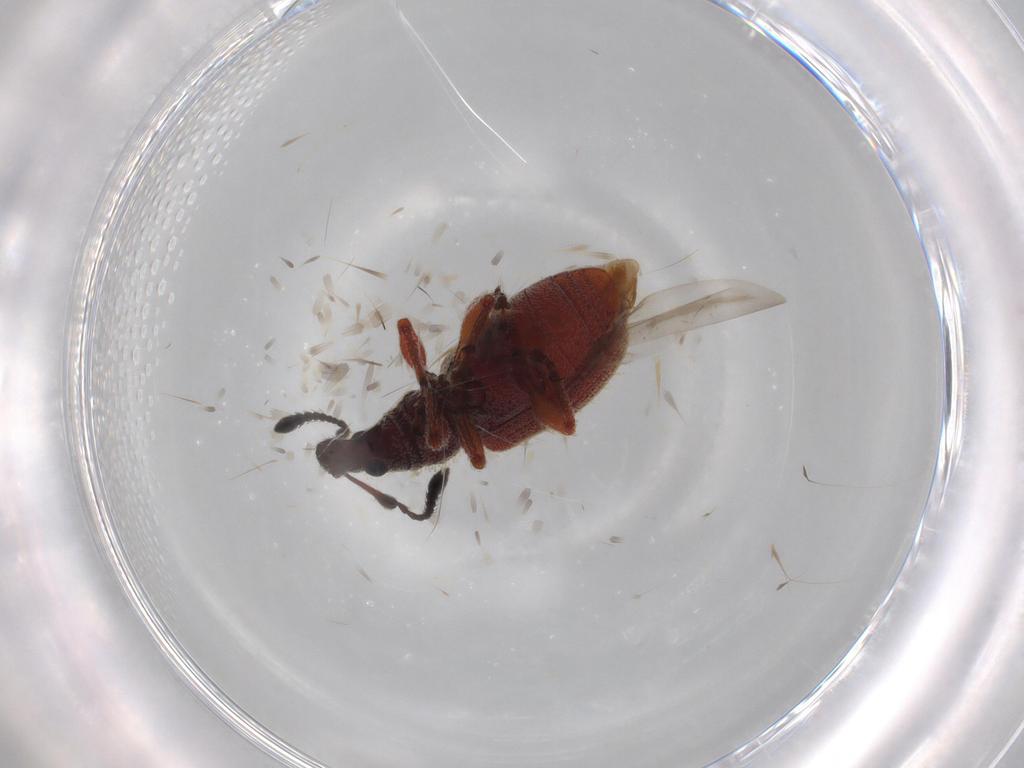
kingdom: Animalia
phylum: Arthropoda
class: Insecta
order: Coleoptera
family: Curculionidae
